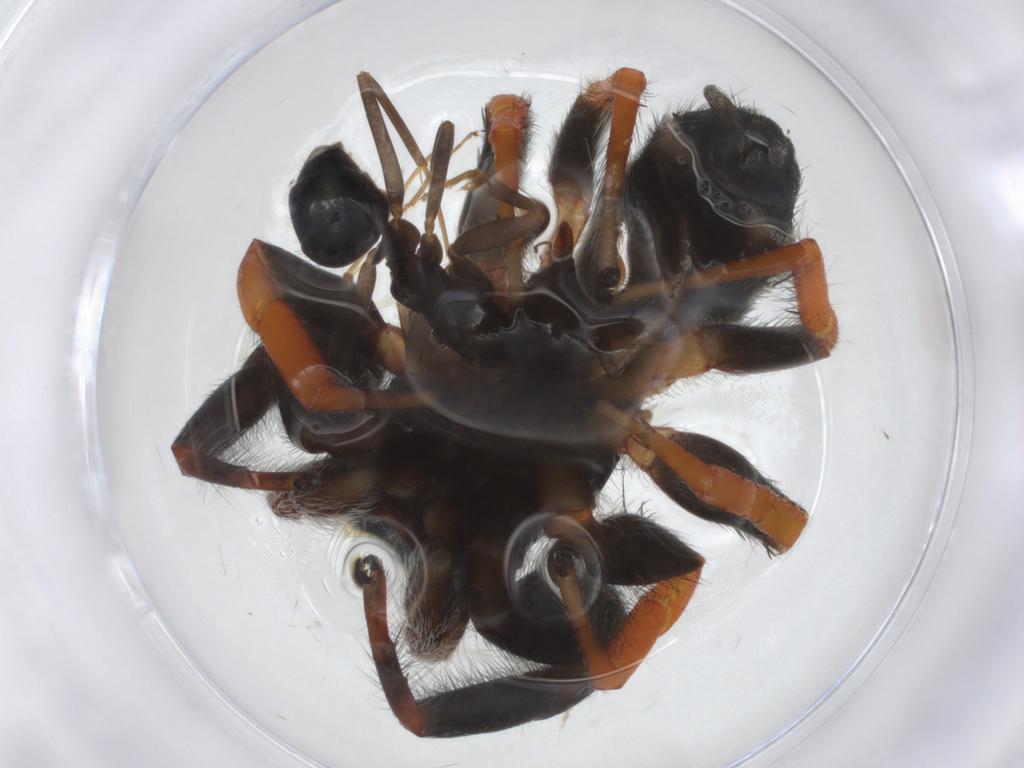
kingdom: Animalia
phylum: Arthropoda
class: Insecta
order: Hymenoptera
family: Formicidae
